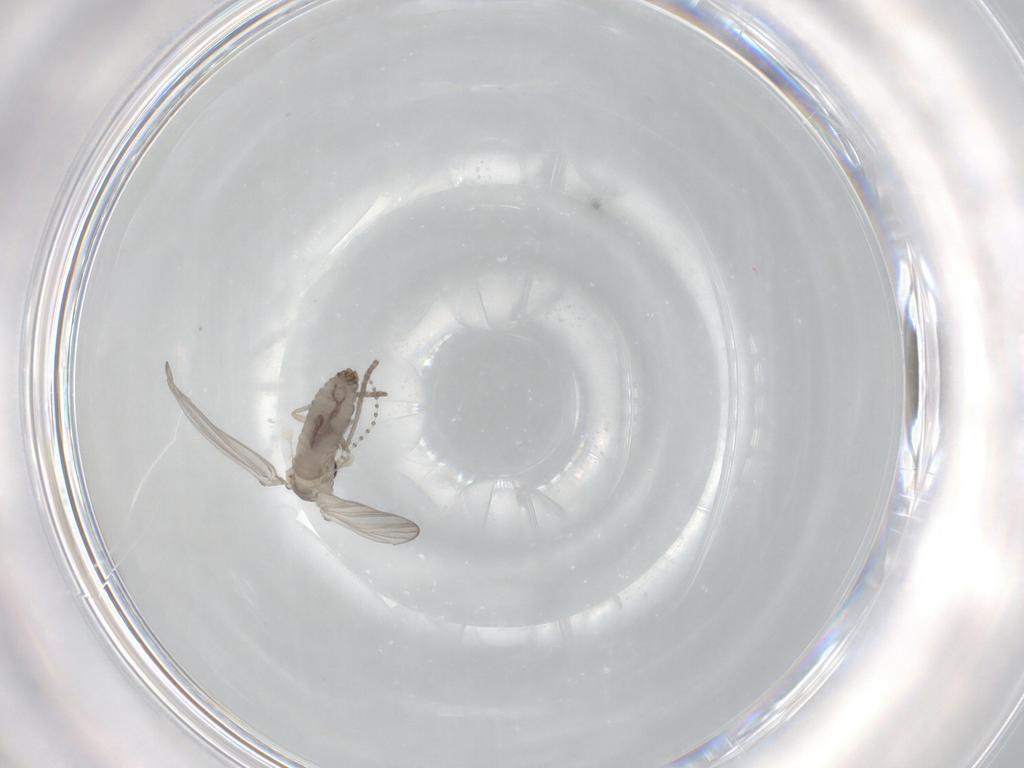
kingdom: Animalia
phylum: Arthropoda
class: Insecta
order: Diptera
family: Psychodidae
